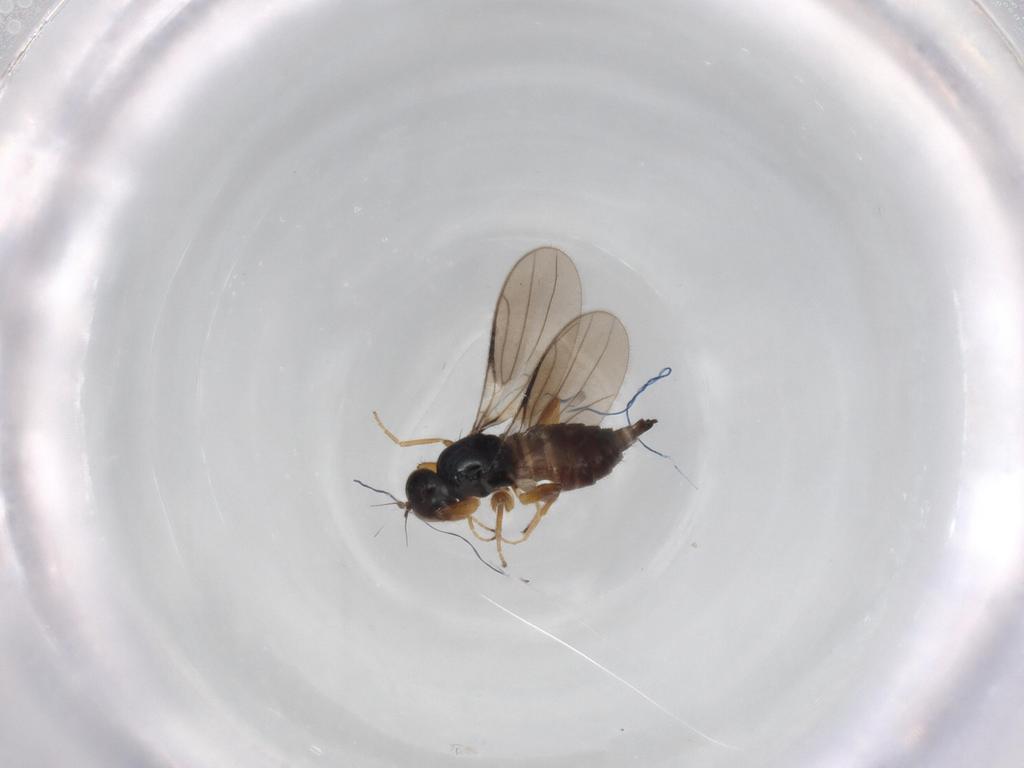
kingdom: Animalia
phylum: Arthropoda
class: Insecta
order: Diptera
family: Hybotidae
